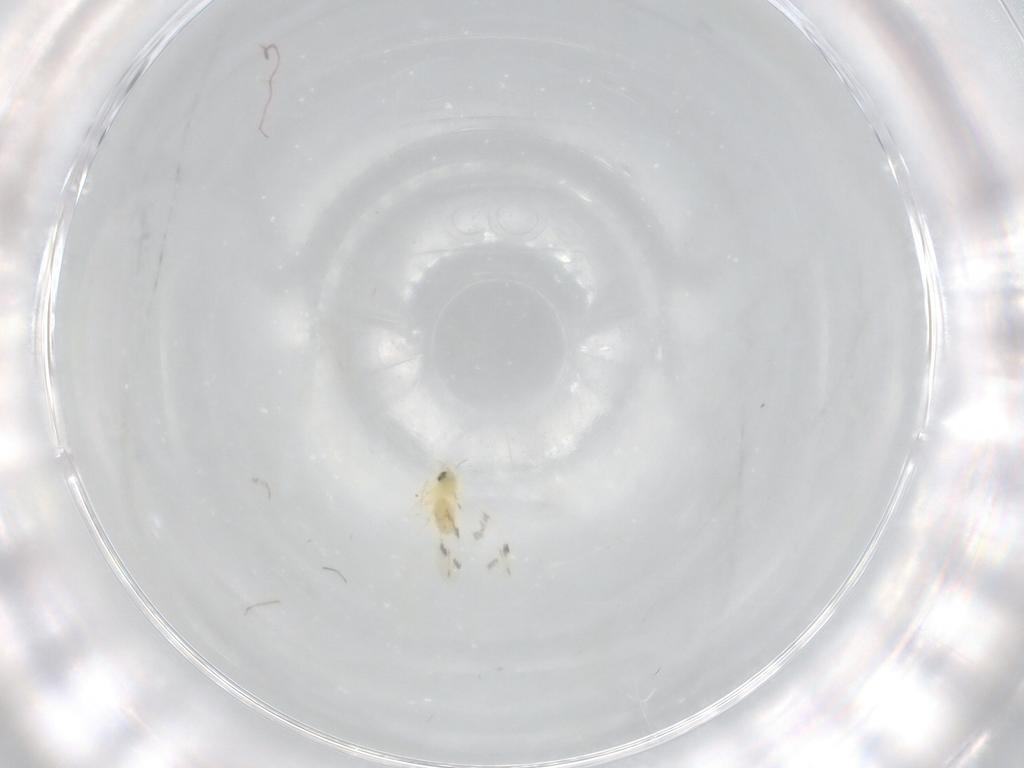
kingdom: Animalia
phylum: Arthropoda
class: Insecta
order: Hemiptera
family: Aleyrodidae
